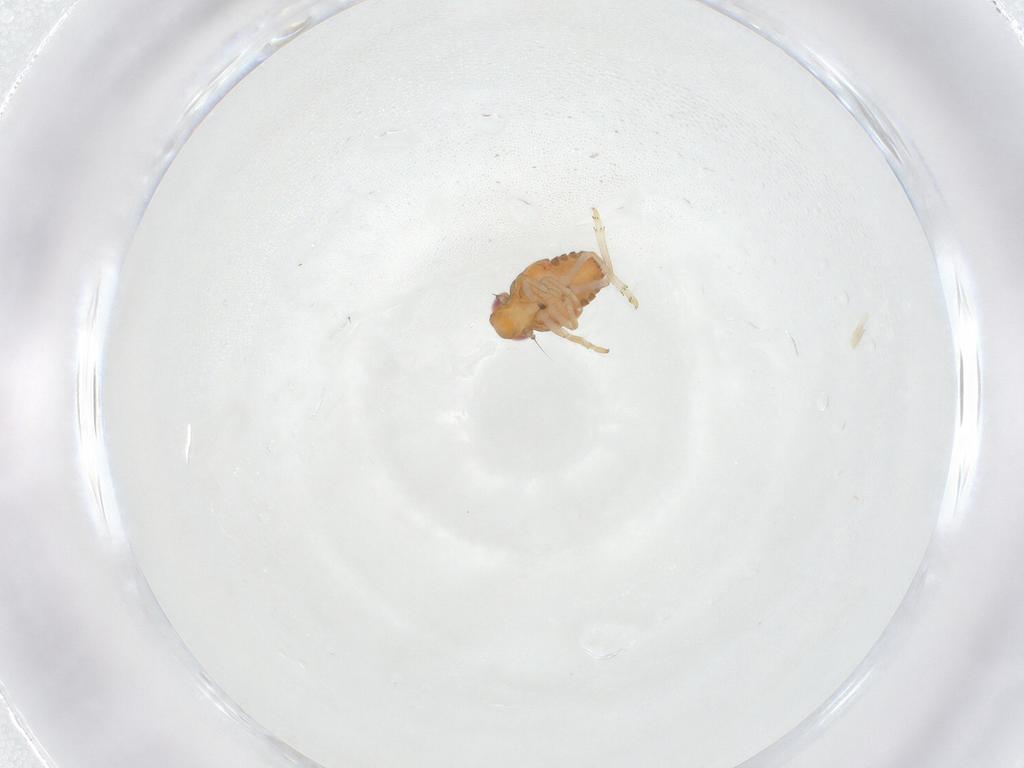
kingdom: Animalia
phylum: Arthropoda
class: Insecta
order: Hemiptera
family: Issidae
